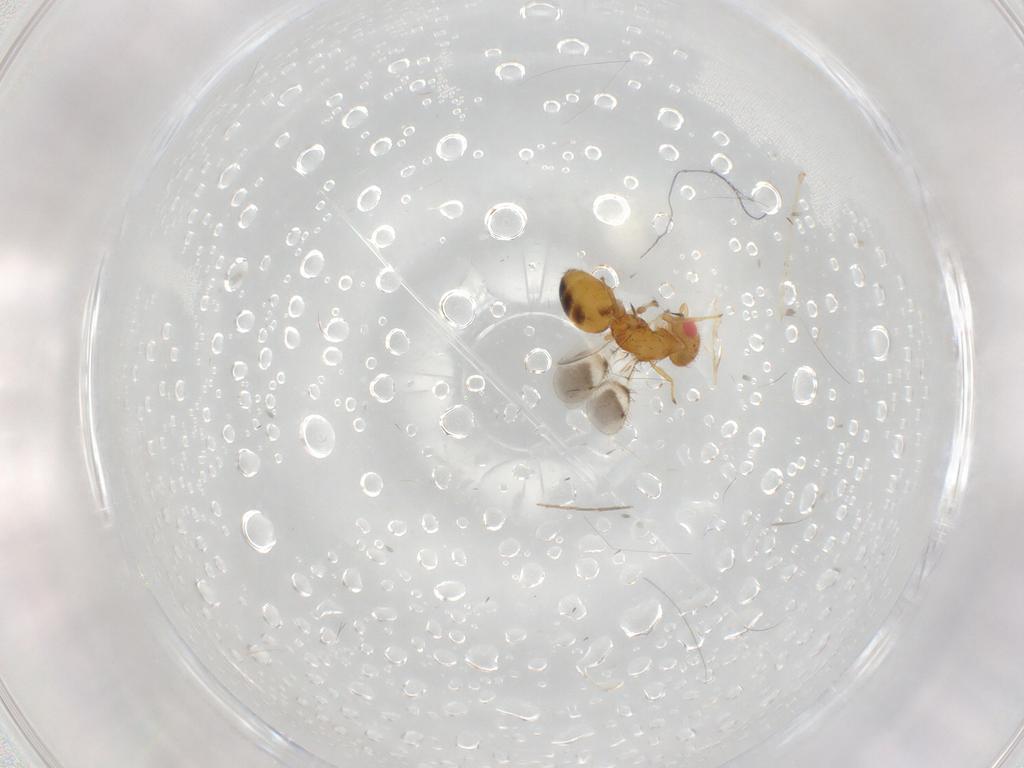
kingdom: Animalia
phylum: Arthropoda
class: Insecta
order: Hymenoptera
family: Eulophidae
